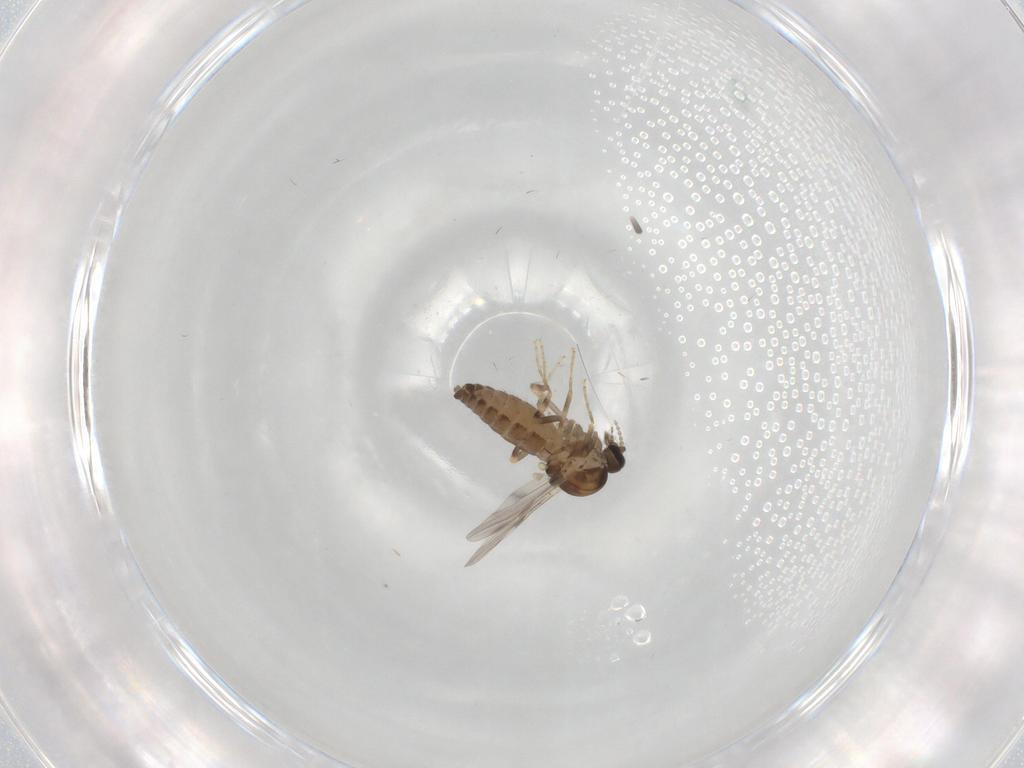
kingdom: Animalia
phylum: Arthropoda
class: Insecta
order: Diptera
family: Ceratopogonidae
